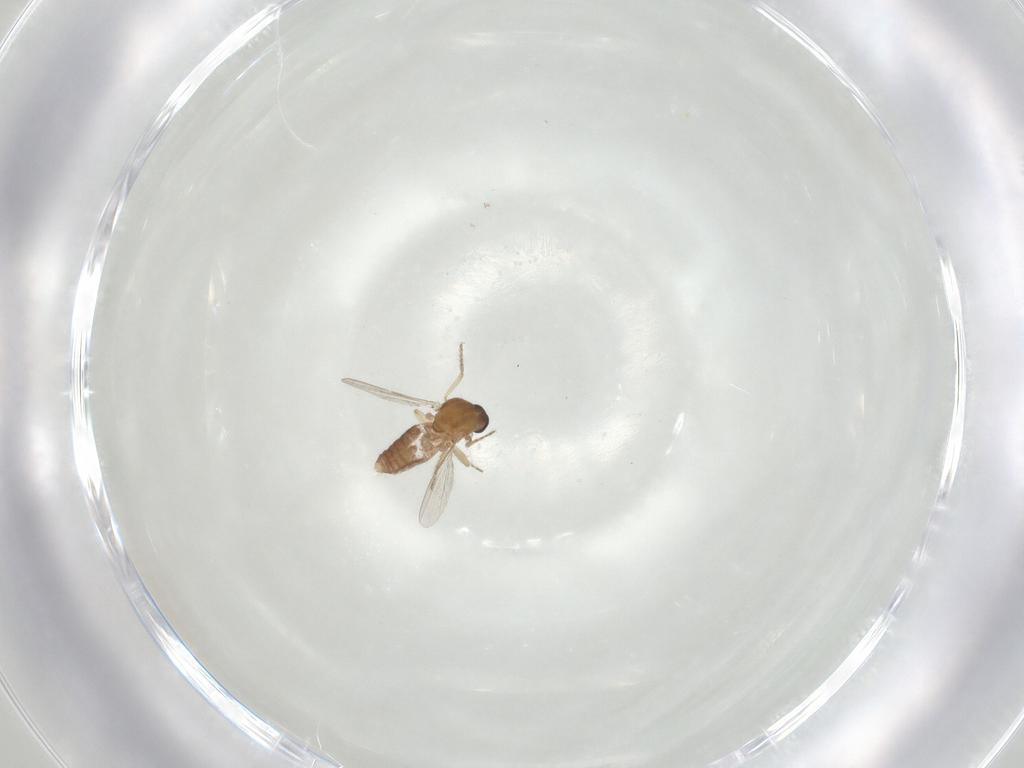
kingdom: Animalia
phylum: Arthropoda
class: Insecta
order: Diptera
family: Ceratopogonidae
